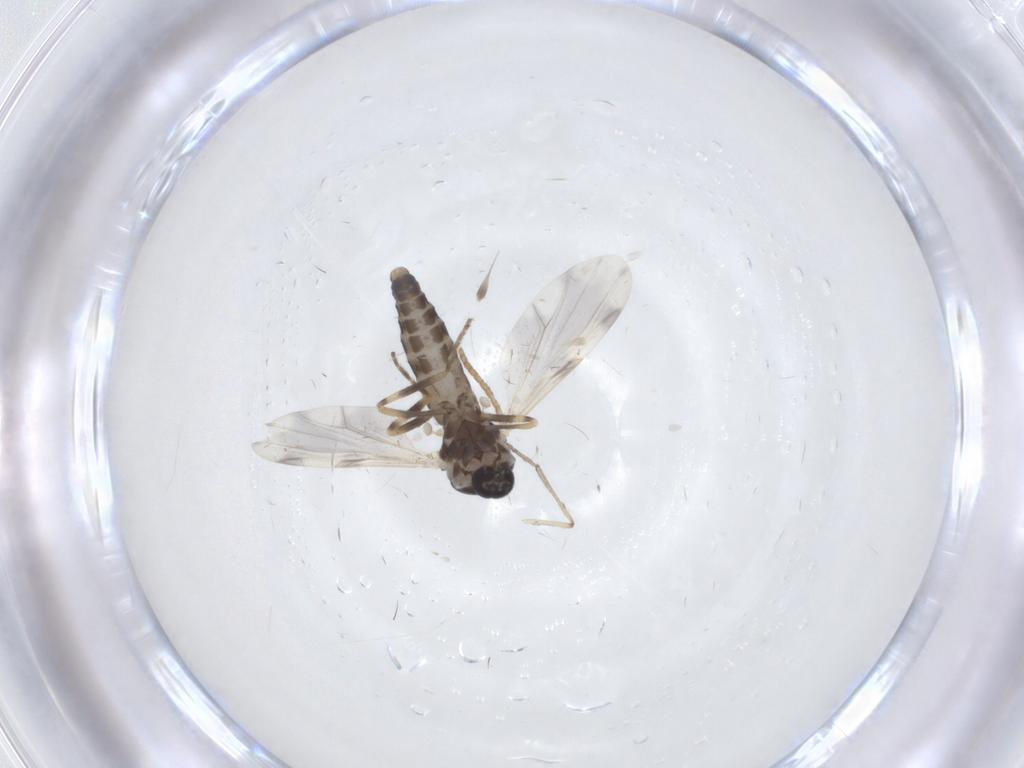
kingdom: Animalia
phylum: Arthropoda
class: Insecta
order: Diptera
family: Ceratopogonidae
